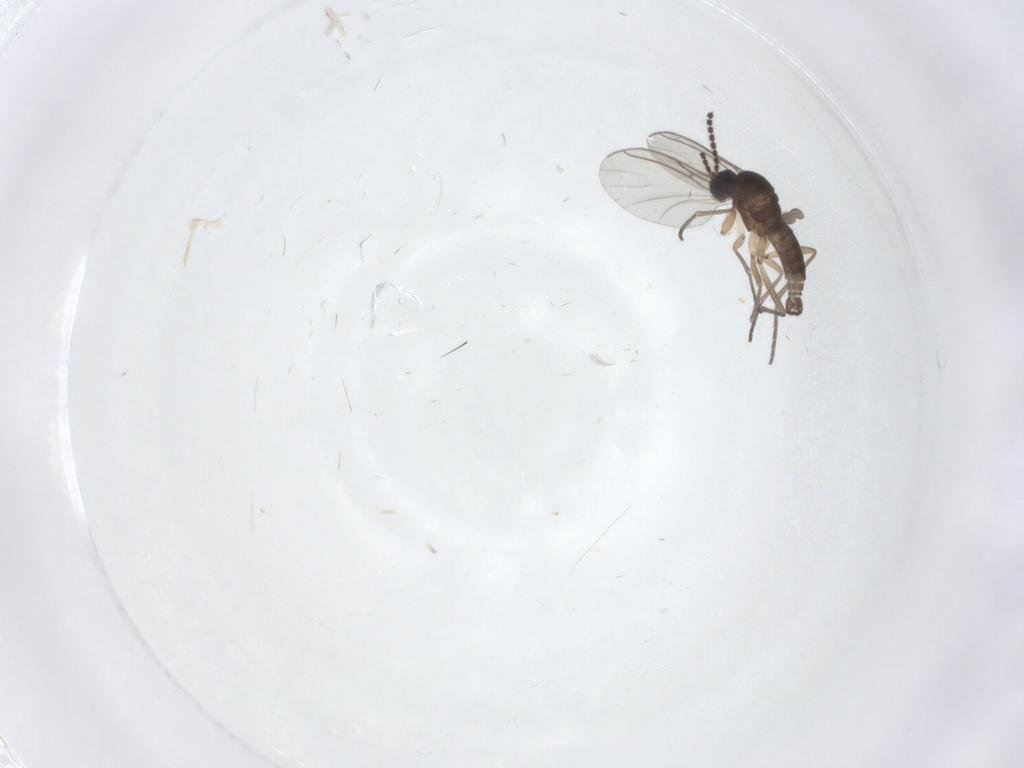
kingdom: Animalia
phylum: Arthropoda
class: Insecta
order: Diptera
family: Sciaridae
